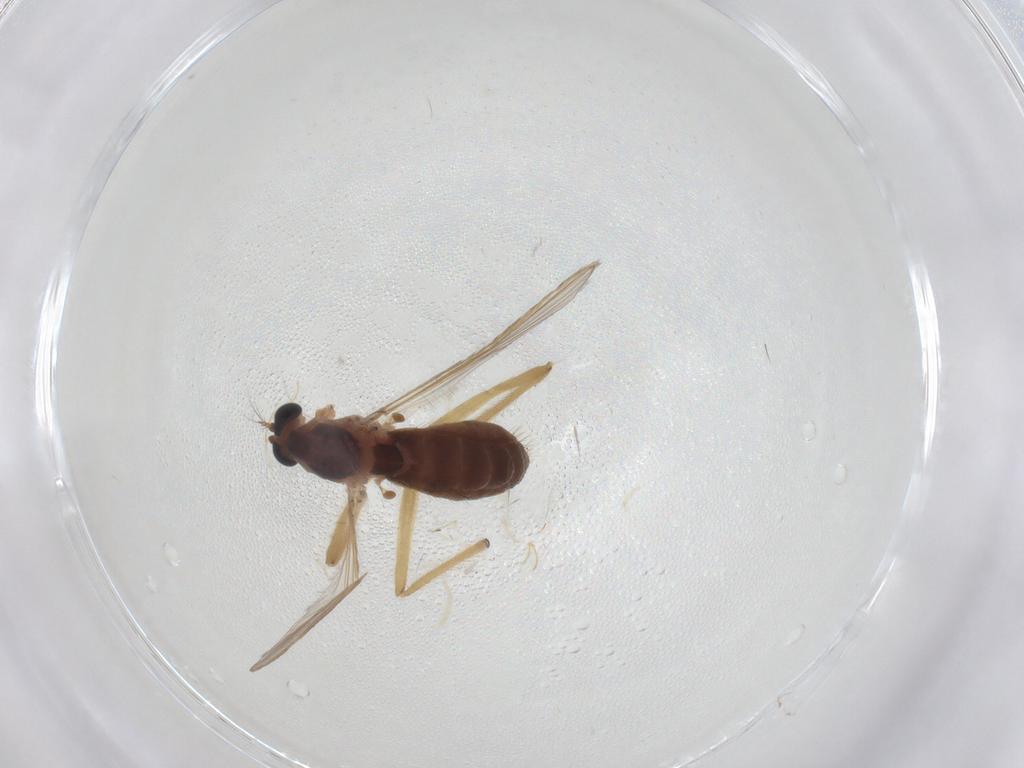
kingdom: Animalia
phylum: Arthropoda
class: Insecta
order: Diptera
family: Chironomidae
